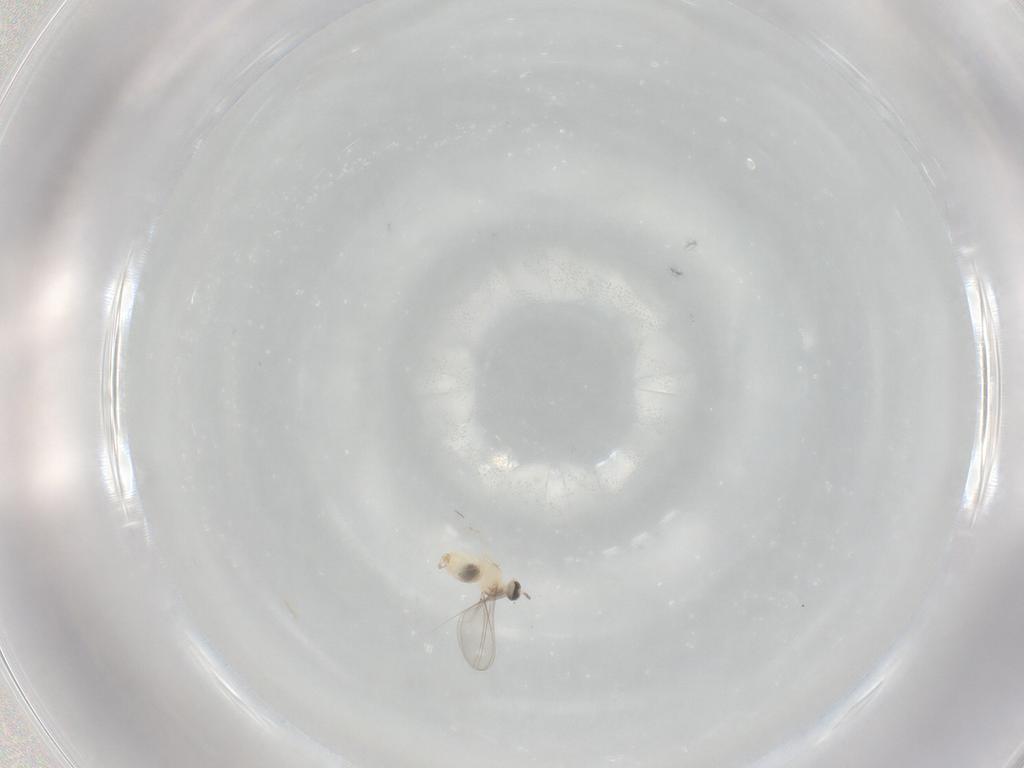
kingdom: Animalia
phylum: Arthropoda
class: Insecta
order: Diptera
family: Cecidomyiidae
